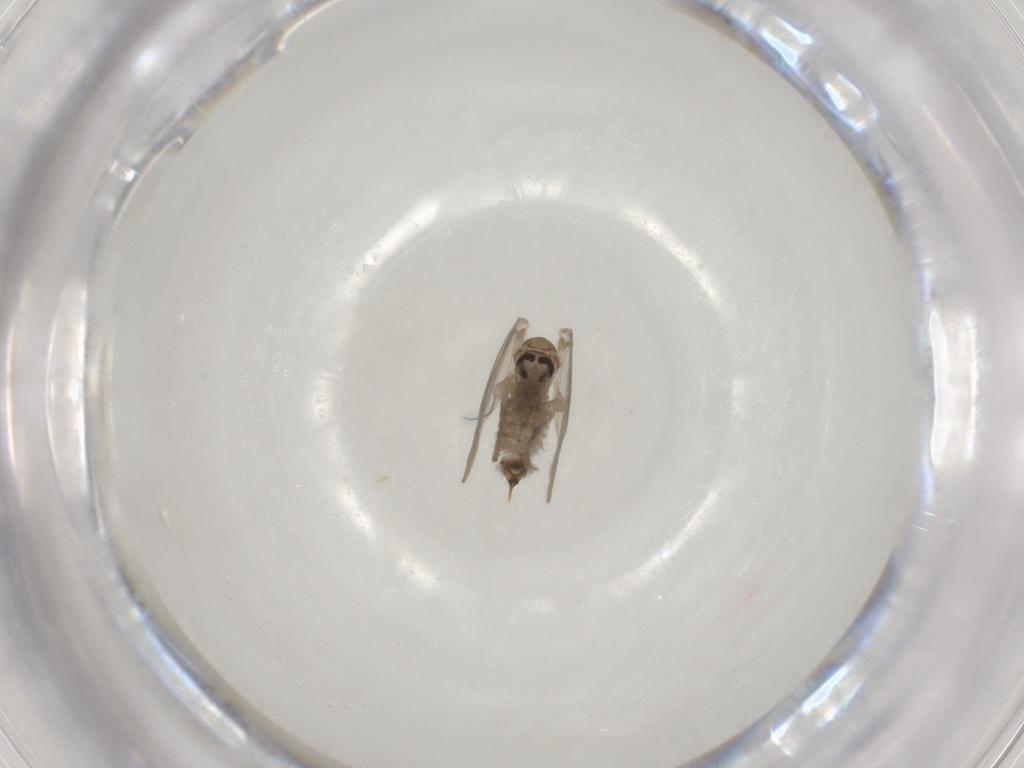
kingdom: Animalia
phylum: Arthropoda
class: Insecta
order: Diptera
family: Psychodidae
